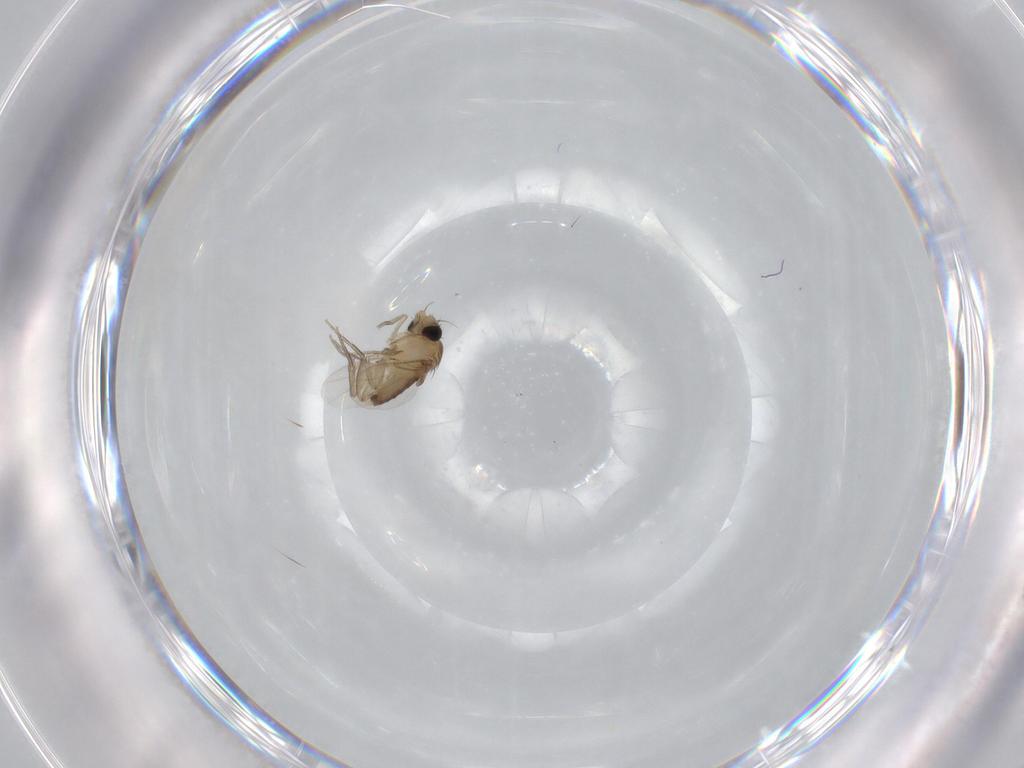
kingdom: Animalia
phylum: Arthropoda
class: Insecta
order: Diptera
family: Phoridae
